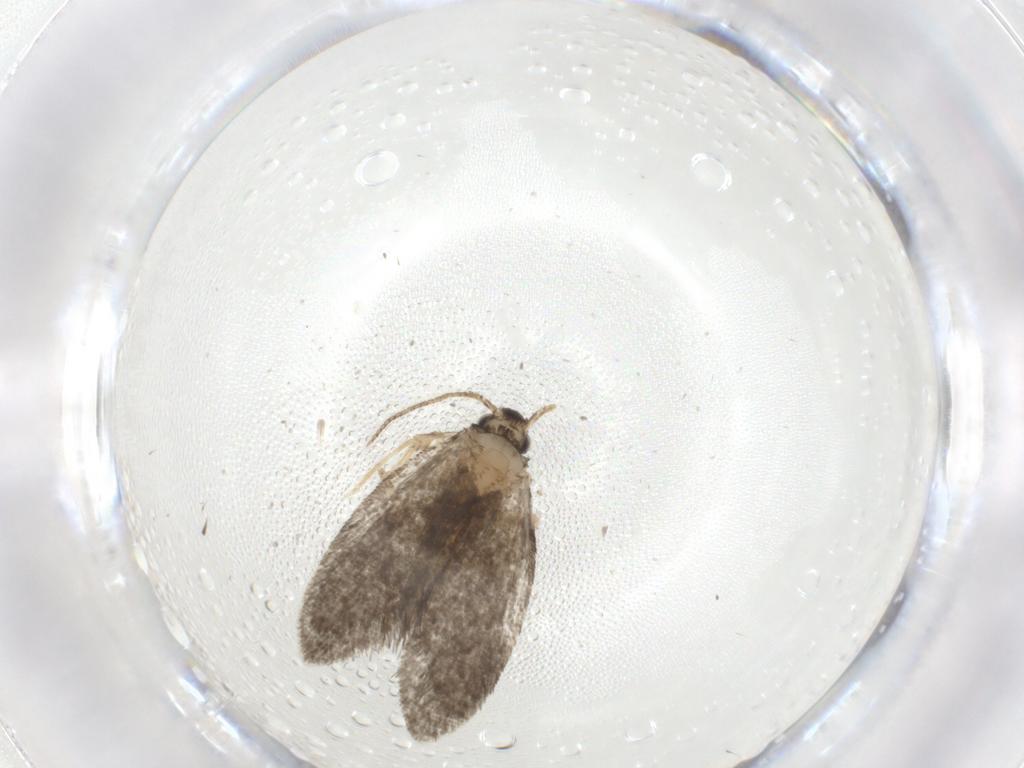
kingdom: Animalia
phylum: Arthropoda
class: Insecta
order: Lepidoptera
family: Psychidae
